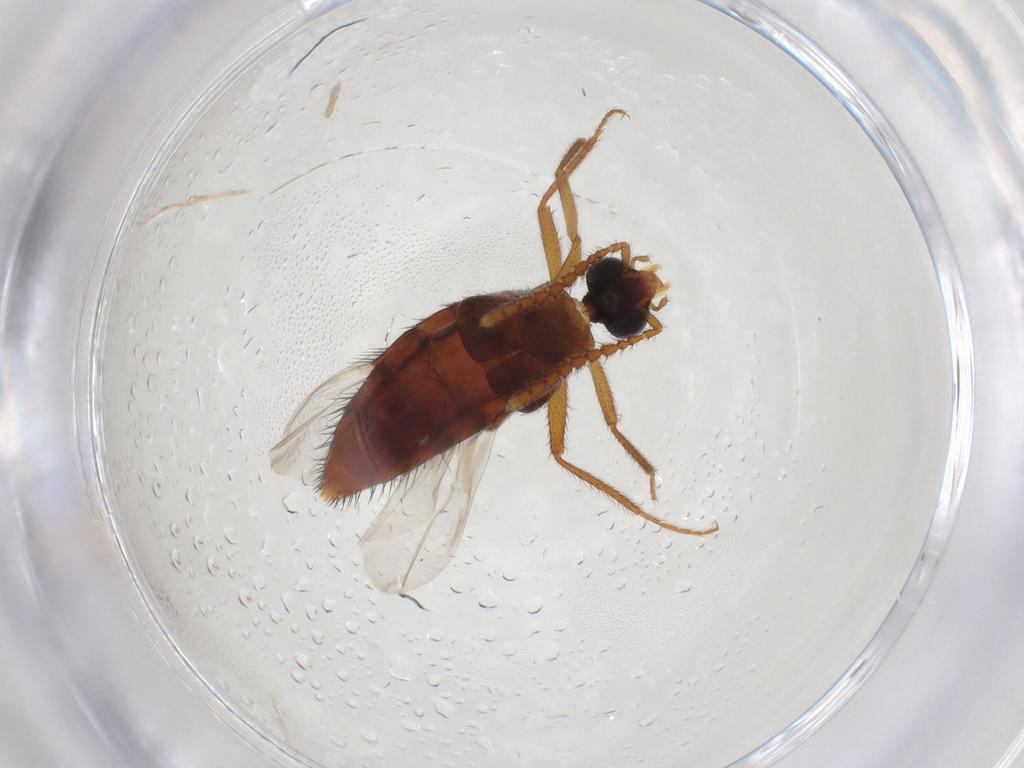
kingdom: Animalia
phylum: Arthropoda
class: Insecta
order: Coleoptera
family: Staphylinidae
